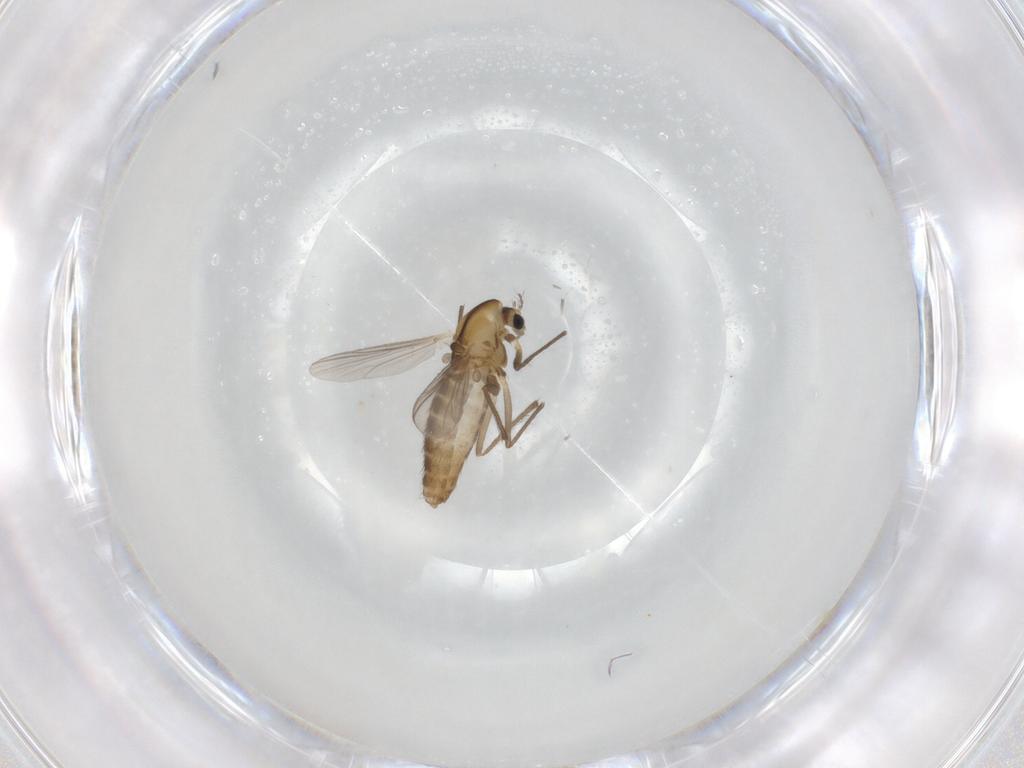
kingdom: Animalia
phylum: Arthropoda
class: Insecta
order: Diptera
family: Chironomidae
